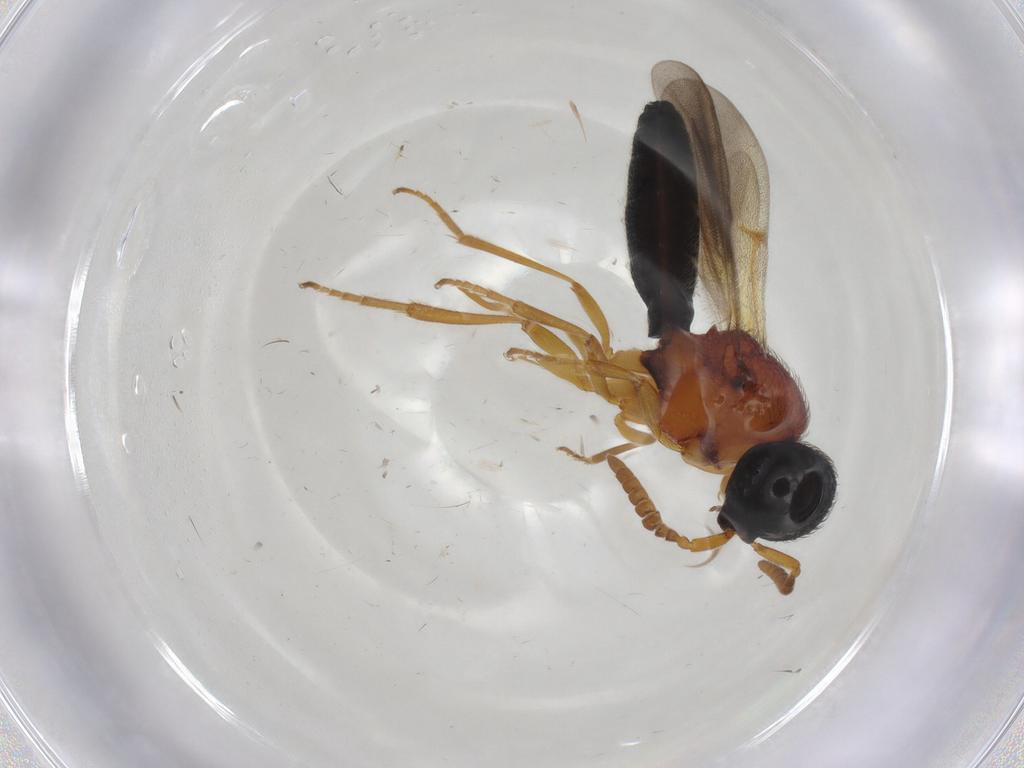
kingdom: Animalia
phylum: Arthropoda
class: Insecta
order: Hymenoptera
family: Scelionidae
